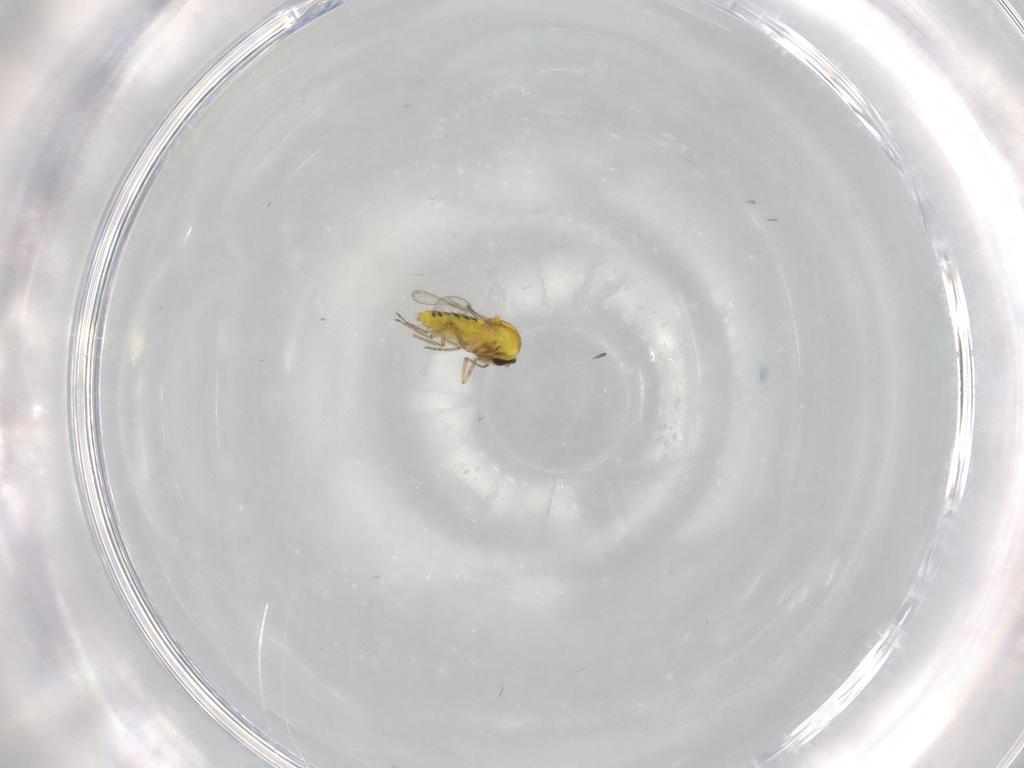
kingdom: Animalia
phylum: Arthropoda
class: Insecta
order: Diptera
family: Ceratopogonidae
